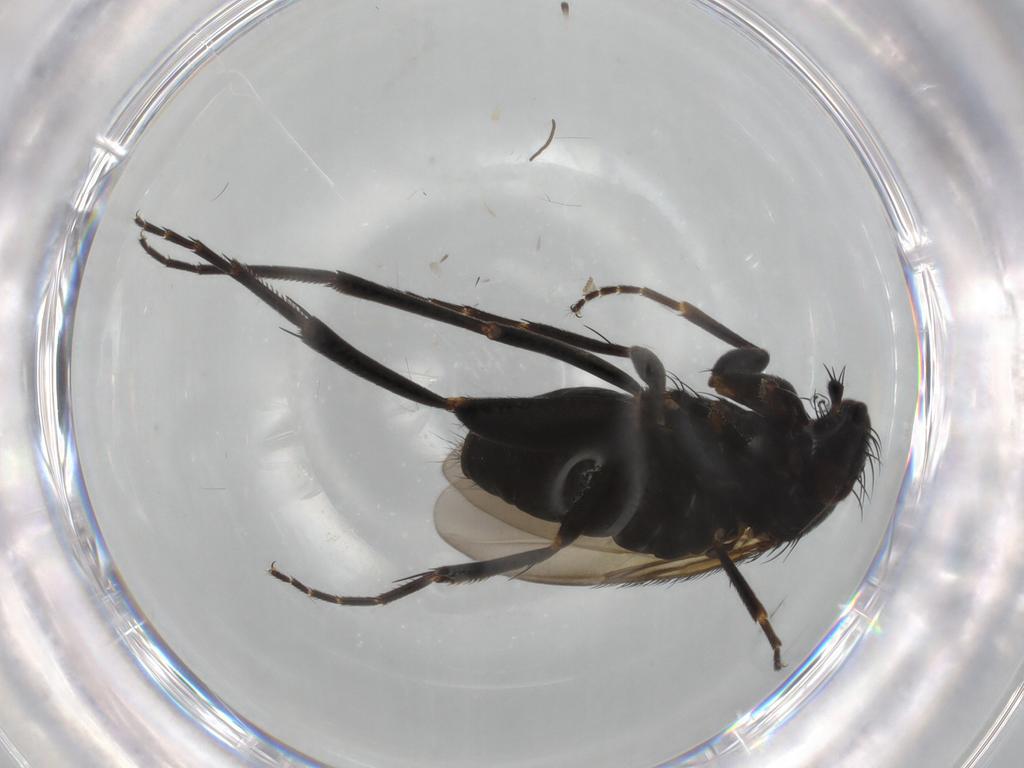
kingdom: Animalia
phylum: Arthropoda
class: Insecta
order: Diptera
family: Phoridae
